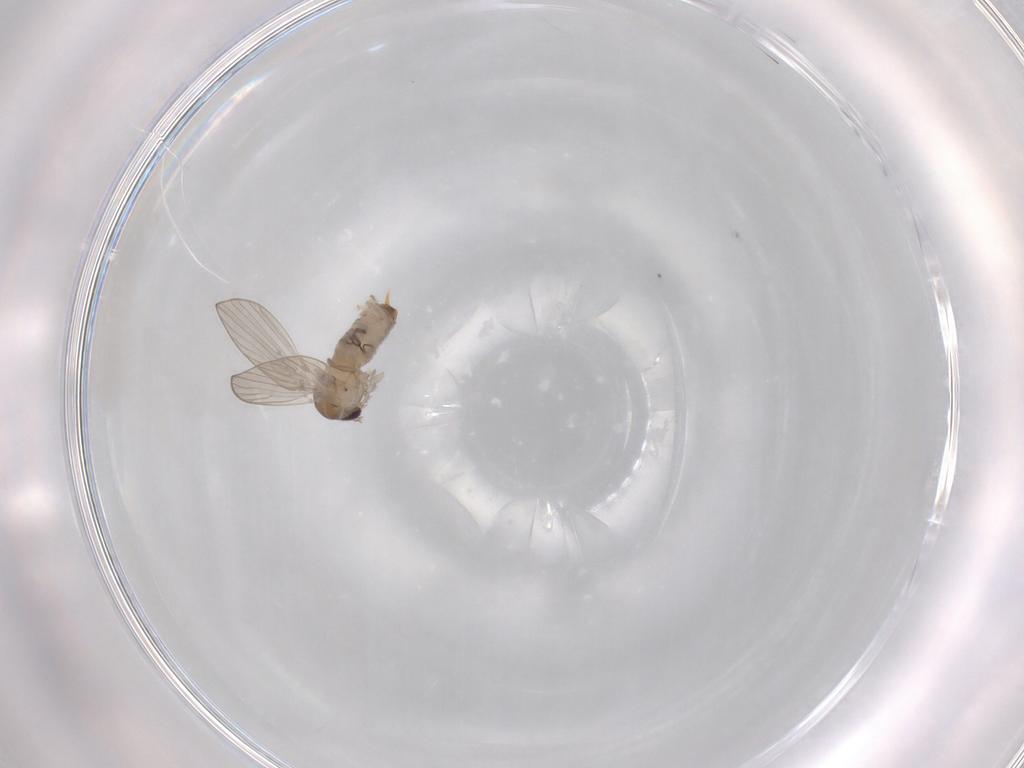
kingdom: Animalia
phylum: Arthropoda
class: Insecta
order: Diptera
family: Psychodidae
